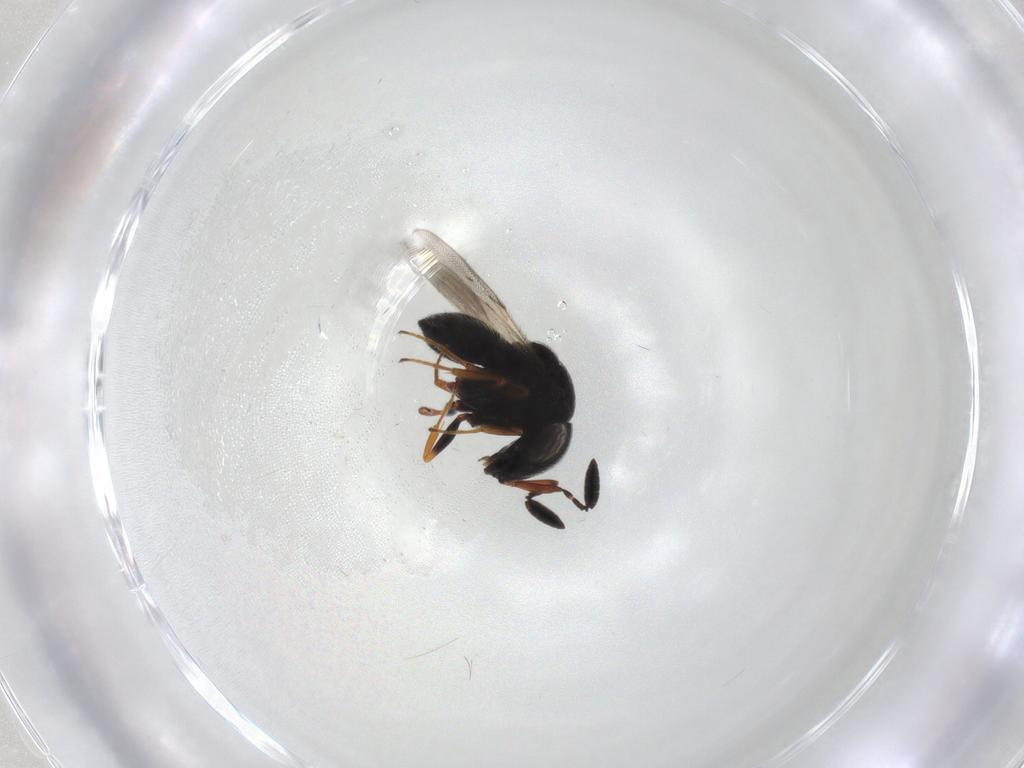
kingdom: Animalia
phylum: Arthropoda
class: Insecta
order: Hymenoptera
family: Scelionidae
